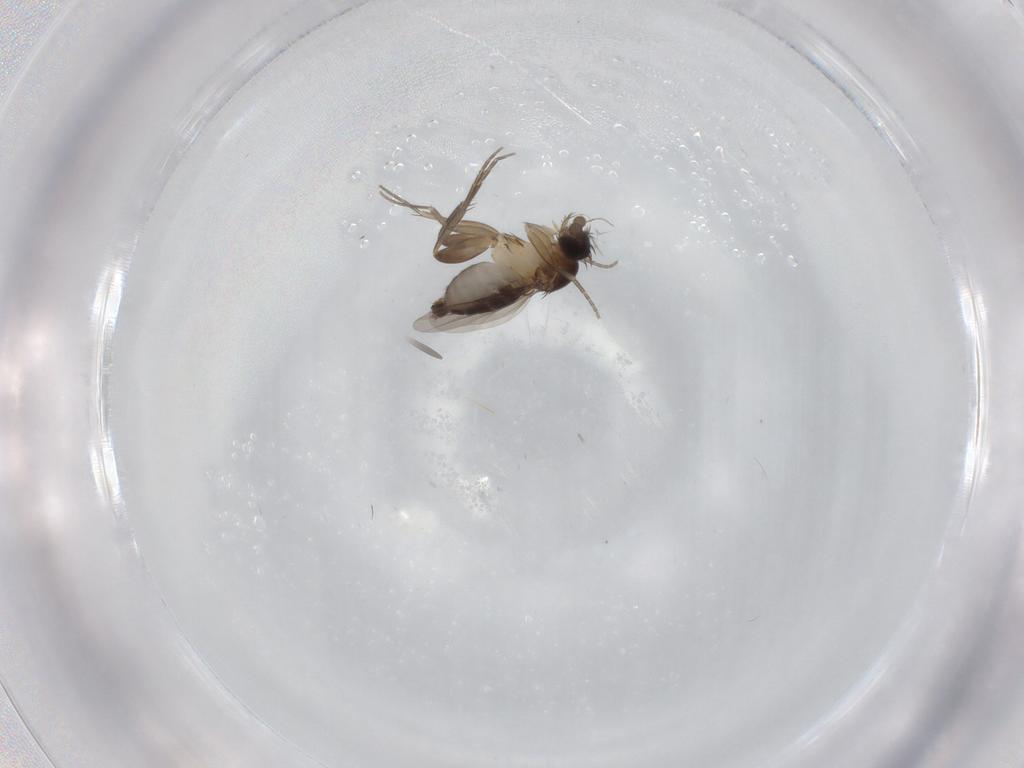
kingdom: Animalia
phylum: Arthropoda
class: Insecta
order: Diptera
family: Phoridae
